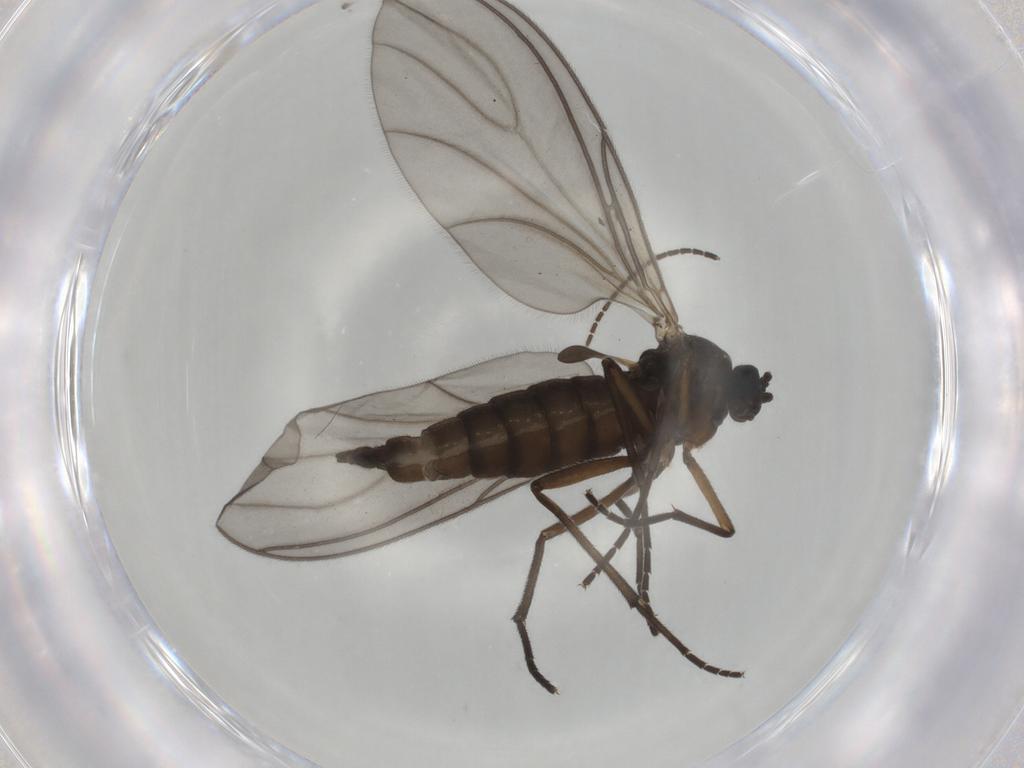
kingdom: Animalia
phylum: Arthropoda
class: Insecta
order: Diptera
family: Sciaridae
